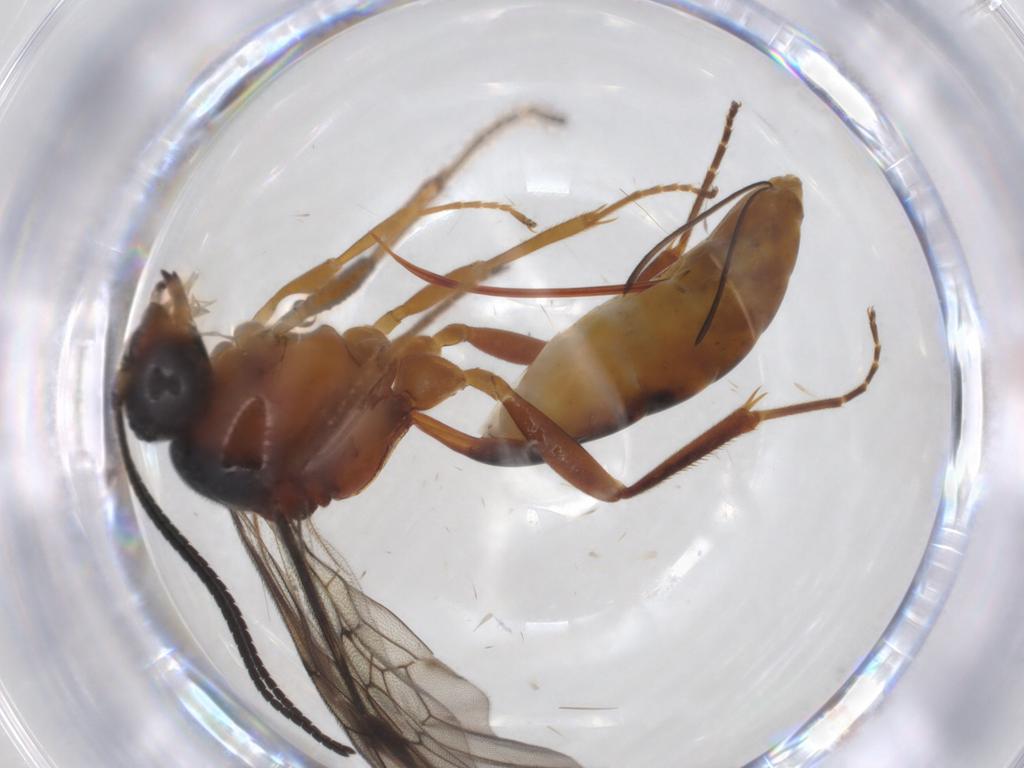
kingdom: Animalia
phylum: Arthropoda
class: Insecta
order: Hymenoptera
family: Ichneumonidae
